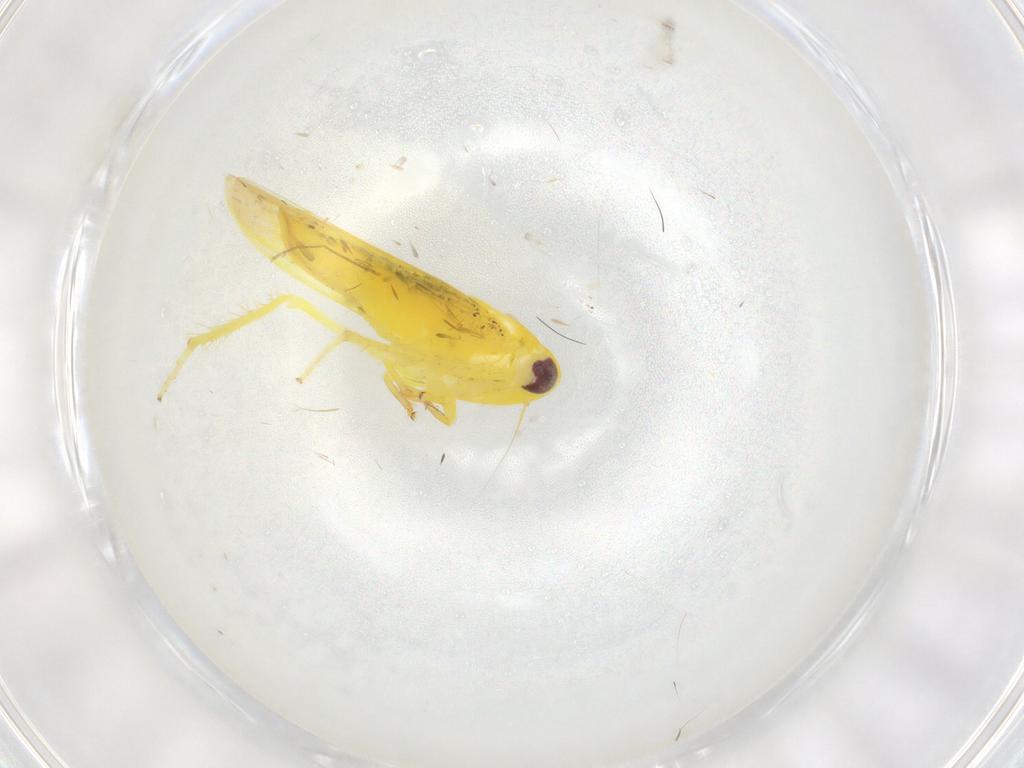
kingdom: Animalia
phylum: Arthropoda
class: Insecta
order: Hemiptera
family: Cicadellidae
